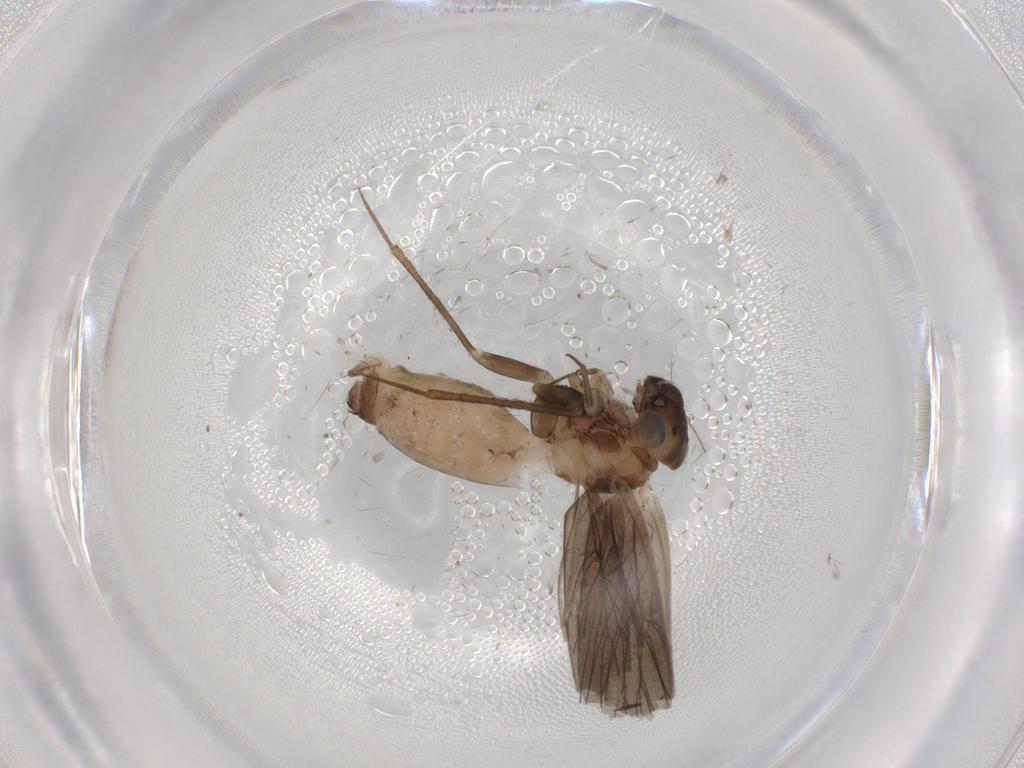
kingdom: Animalia
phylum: Arthropoda
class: Insecta
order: Psocodea
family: Lepidopsocidae
